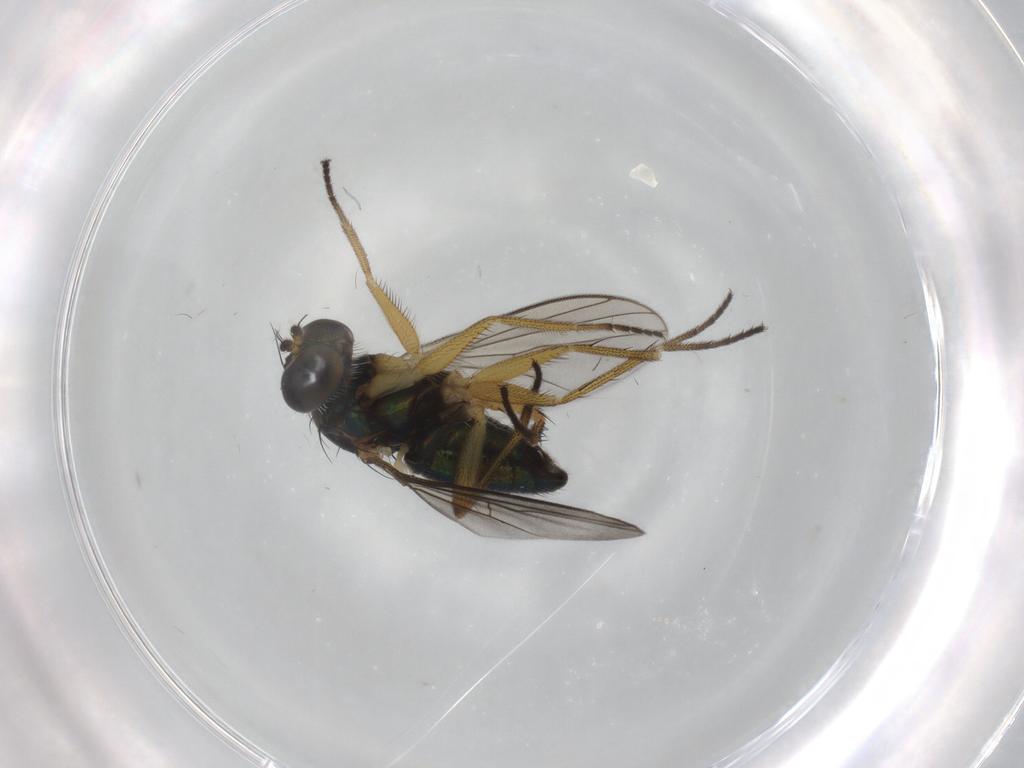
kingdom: Animalia
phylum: Arthropoda
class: Insecta
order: Diptera
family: Dolichopodidae
